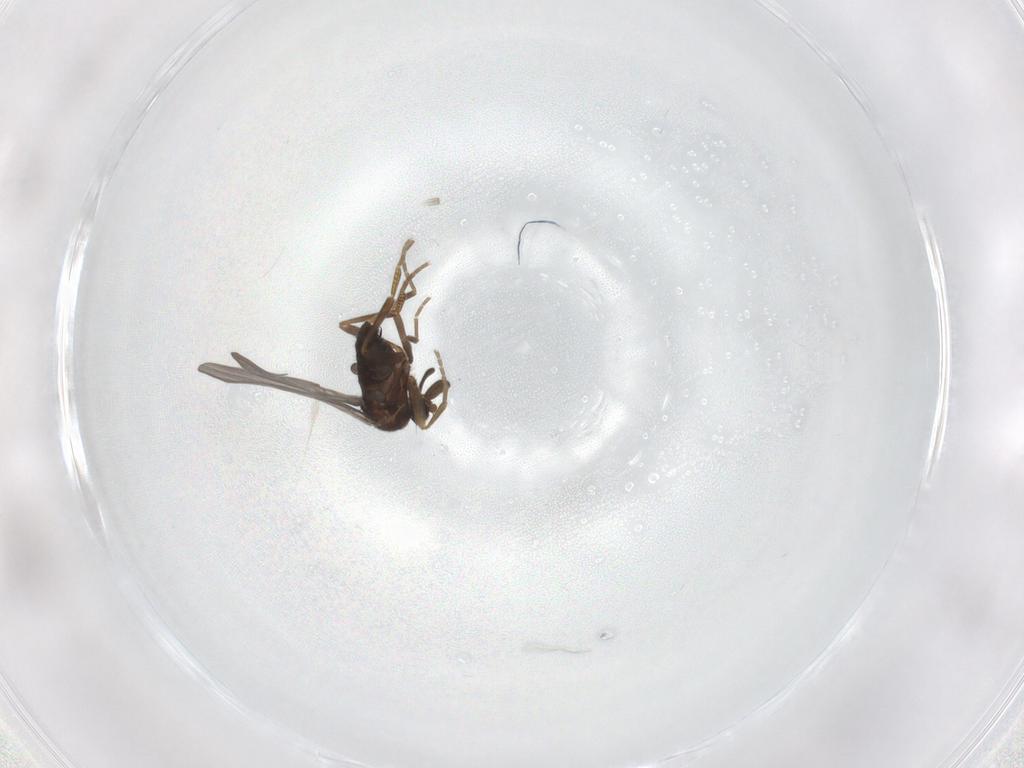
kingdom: Animalia
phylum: Arthropoda
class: Insecta
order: Diptera
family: Phoridae
